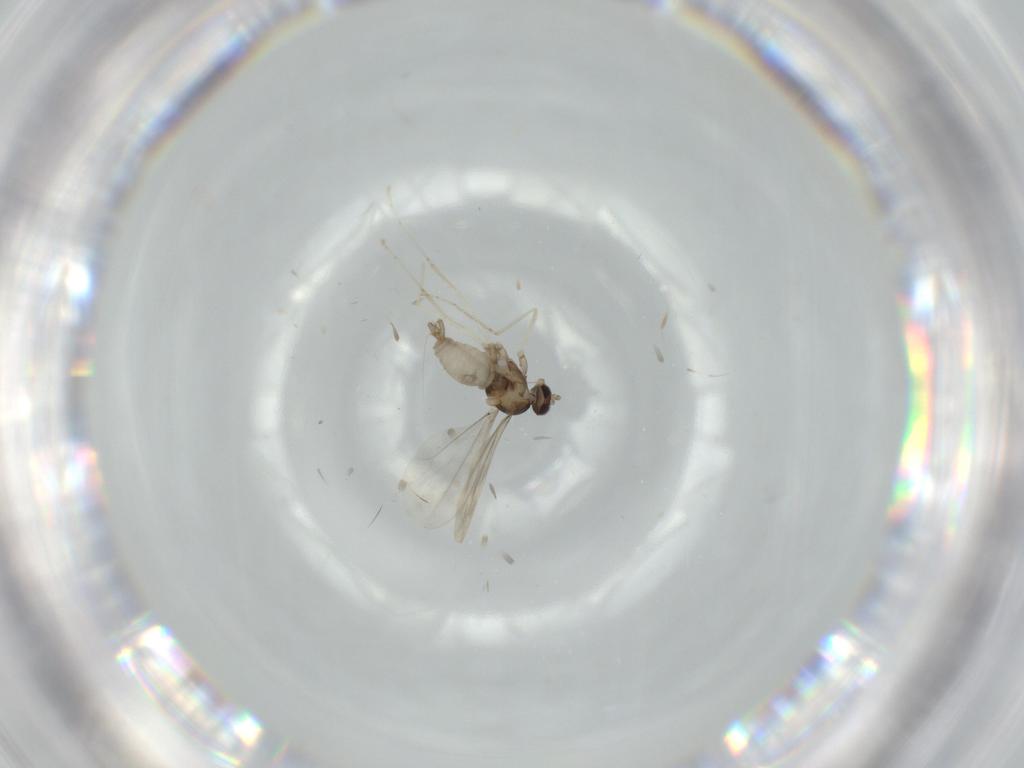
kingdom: Animalia
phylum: Arthropoda
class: Insecta
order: Diptera
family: Cecidomyiidae
